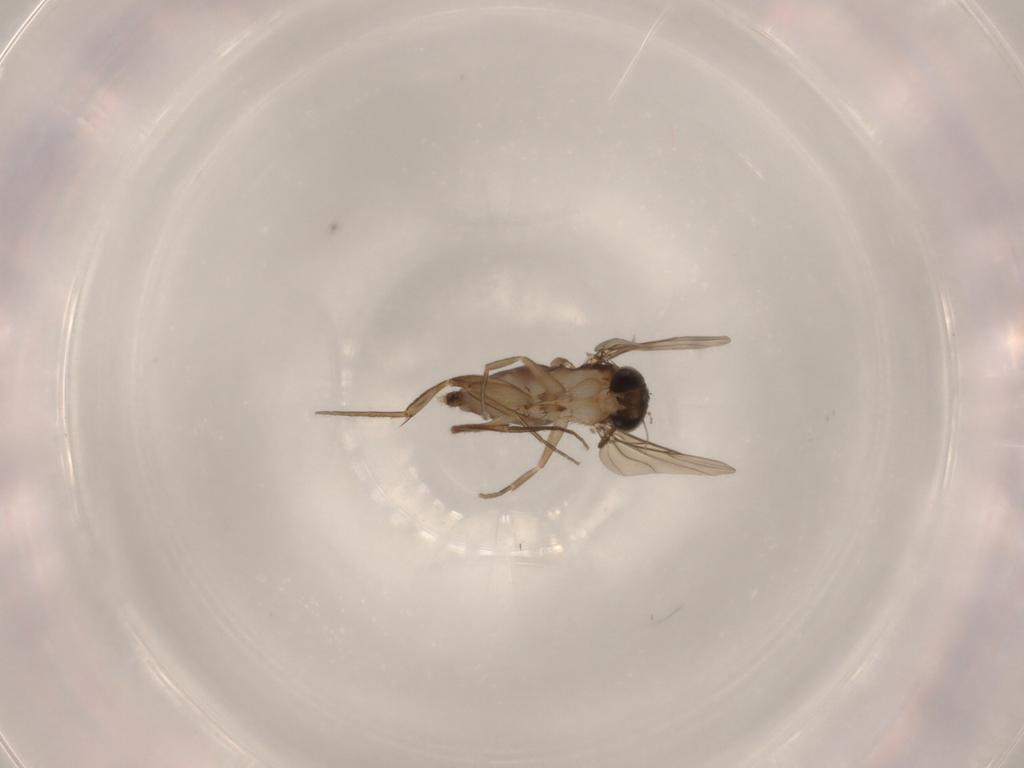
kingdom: Animalia
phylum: Arthropoda
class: Insecta
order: Diptera
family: Phoridae
